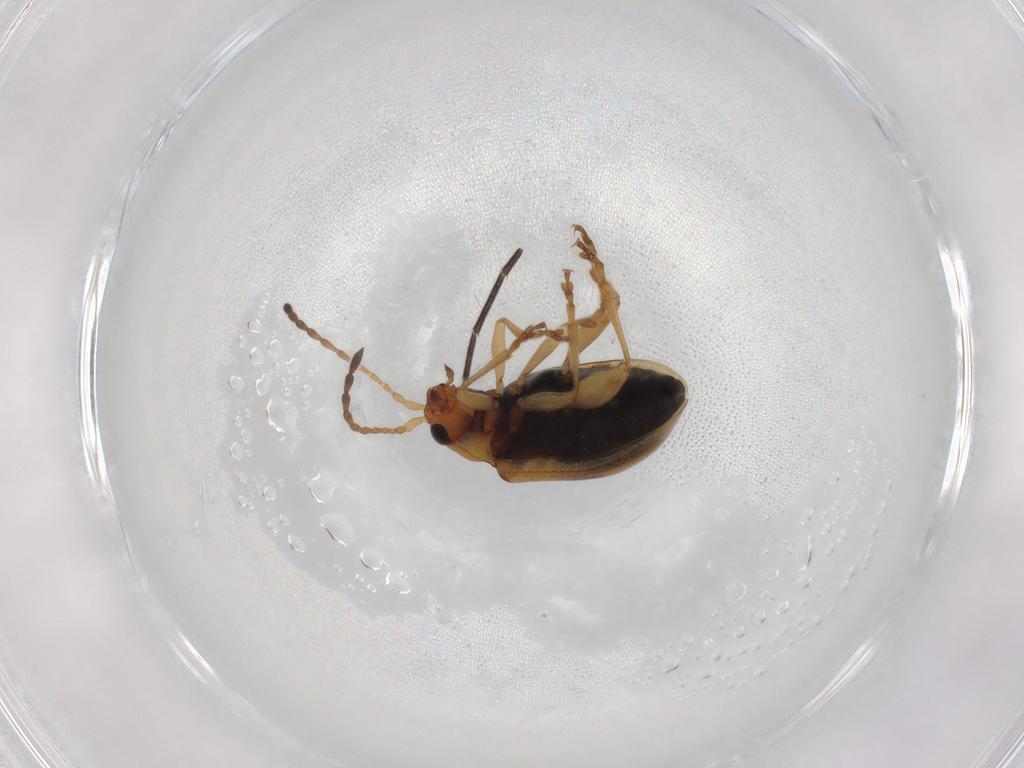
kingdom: Animalia
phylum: Arthropoda
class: Insecta
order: Coleoptera
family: Chrysomelidae
